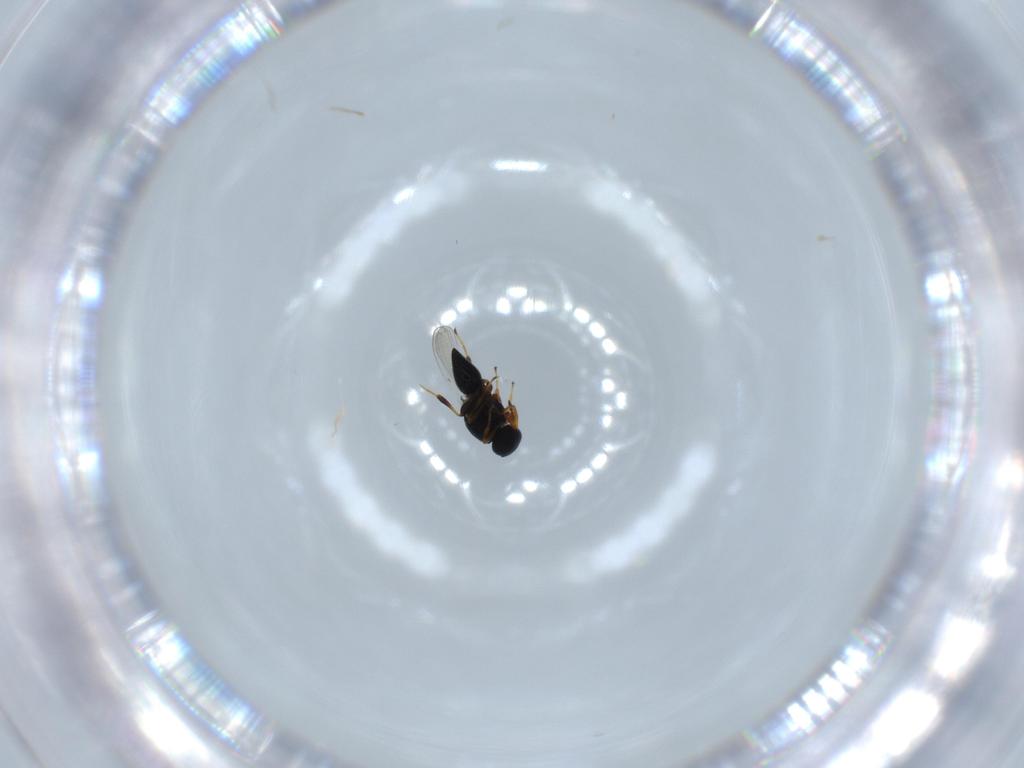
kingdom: Animalia
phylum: Arthropoda
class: Insecta
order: Hymenoptera
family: Platygastridae
